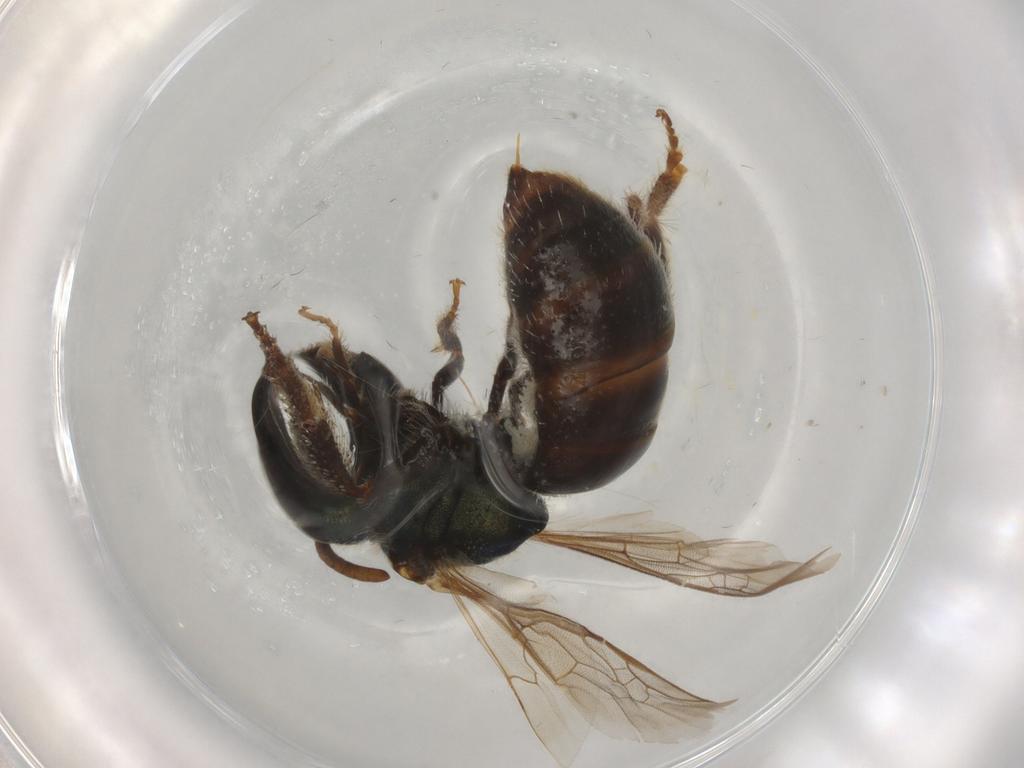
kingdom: Animalia
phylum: Arthropoda
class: Insecta
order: Hymenoptera
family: Halictidae
